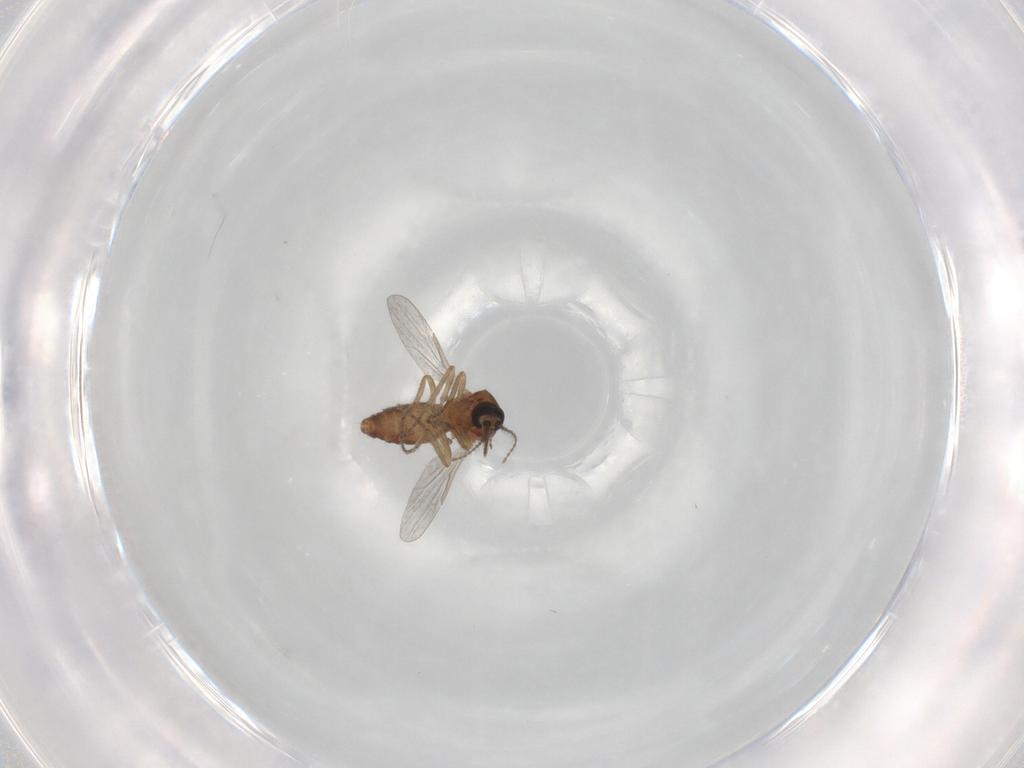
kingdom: Animalia
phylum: Arthropoda
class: Insecta
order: Diptera
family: Ceratopogonidae
